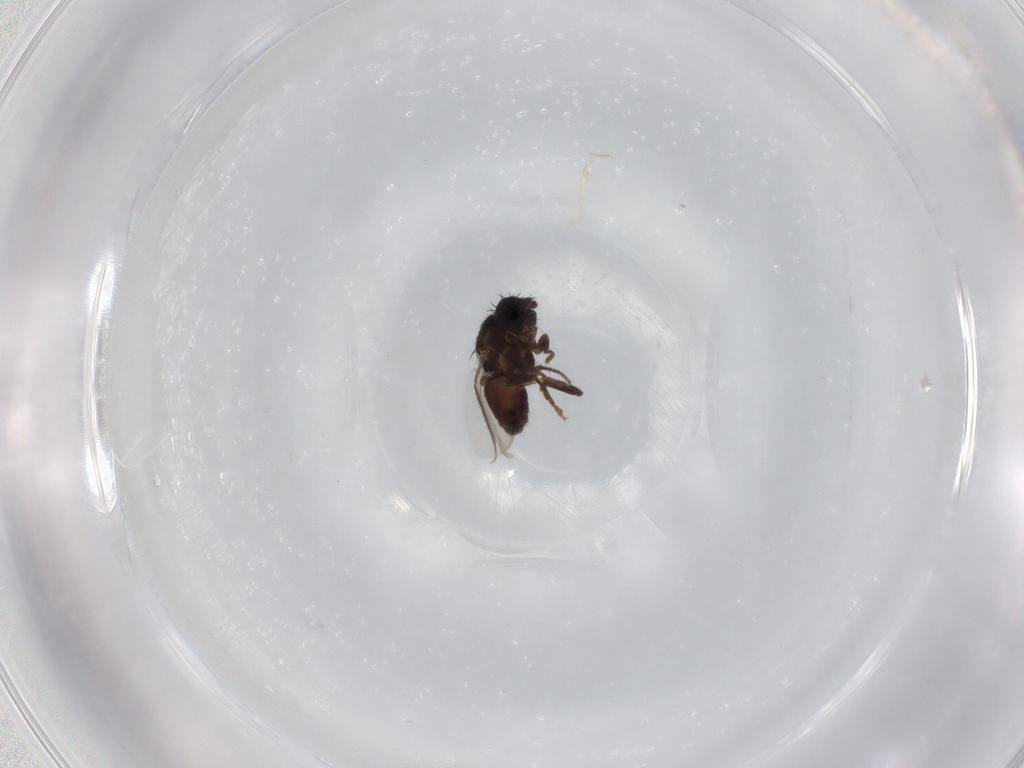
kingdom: Animalia
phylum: Arthropoda
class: Insecta
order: Diptera
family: Sphaeroceridae
